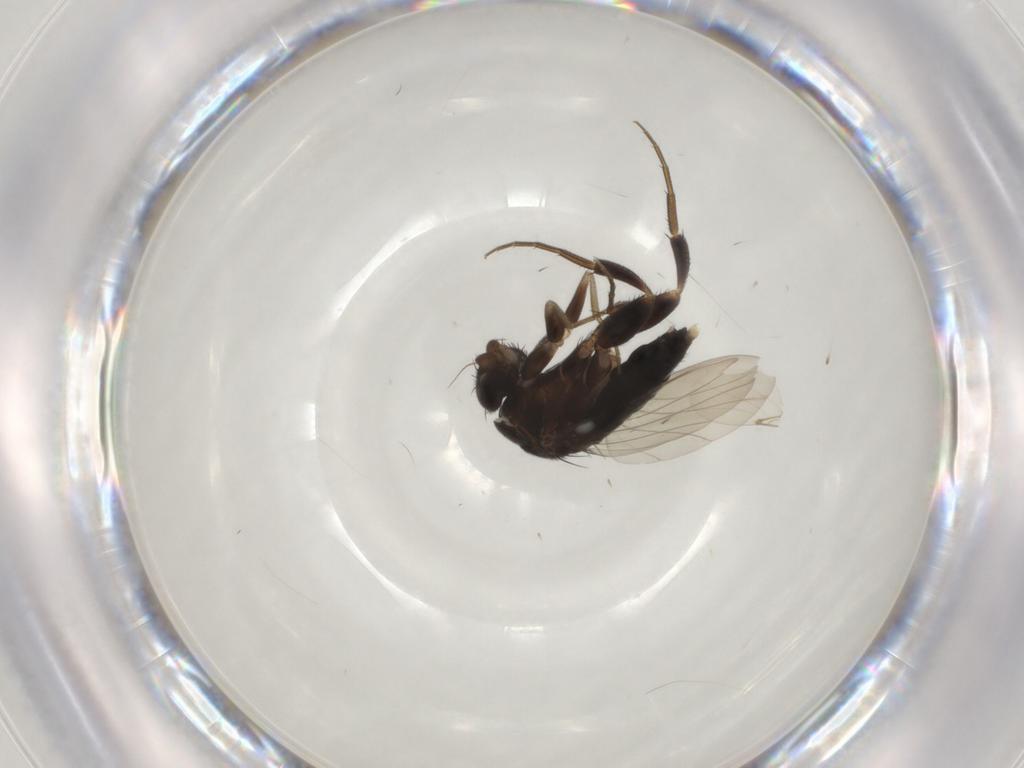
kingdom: Animalia
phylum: Arthropoda
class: Insecta
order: Diptera
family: Phoridae
